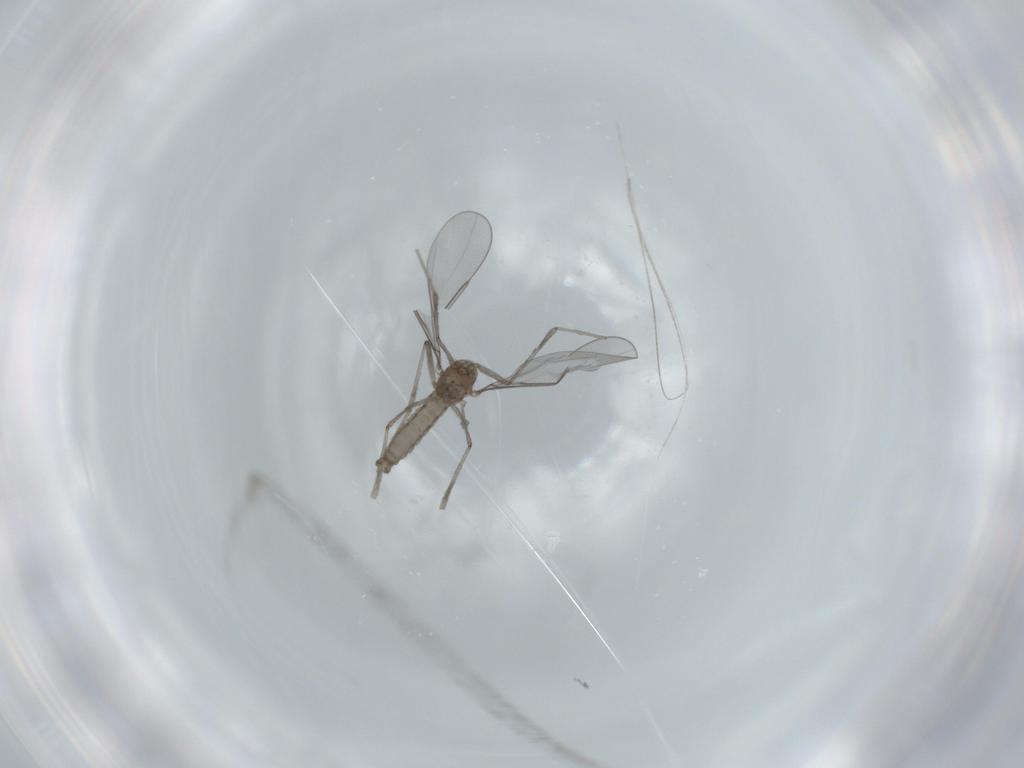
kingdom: Animalia
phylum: Arthropoda
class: Insecta
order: Diptera
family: Cecidomyiidae
